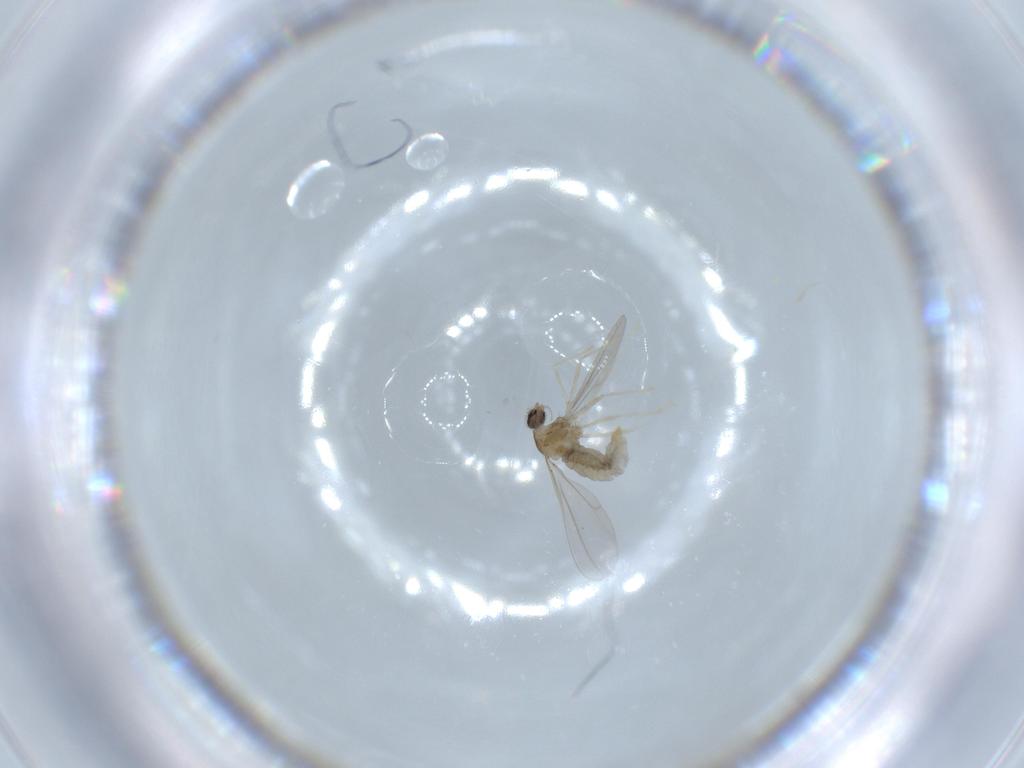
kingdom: Animalia
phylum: Arthropoda
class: Insecta
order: Diptera
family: Cecidomyiidae
